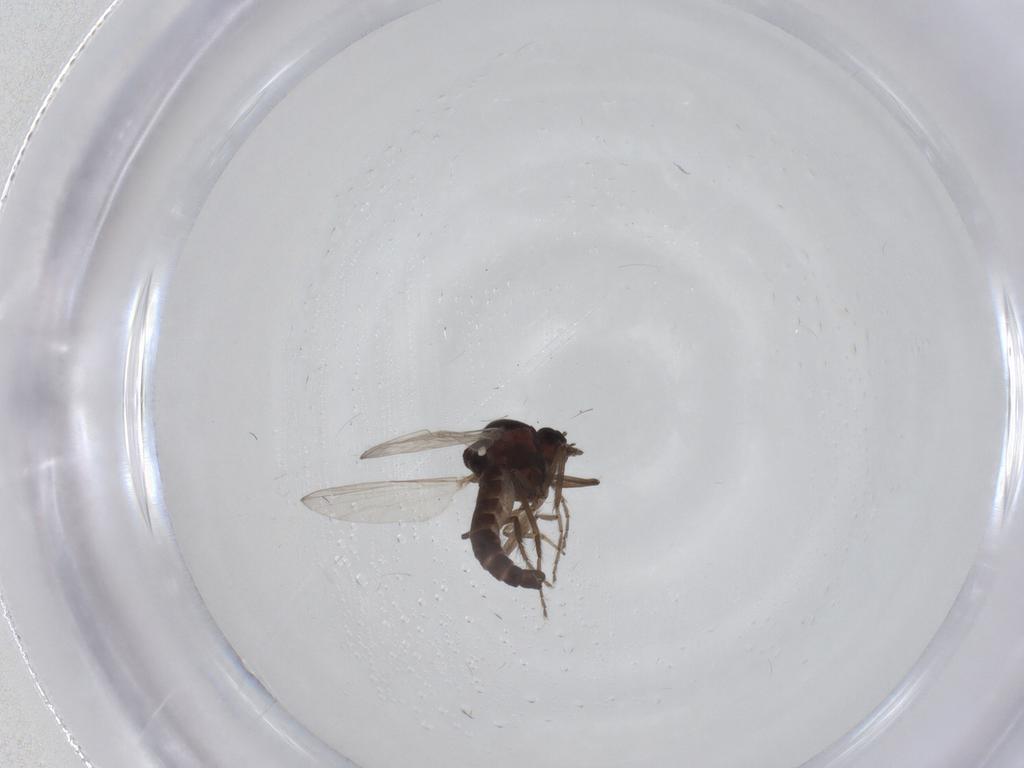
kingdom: Animalia
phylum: Arthropoda
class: Insecta
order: Diptera
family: Ceratopogonidae
